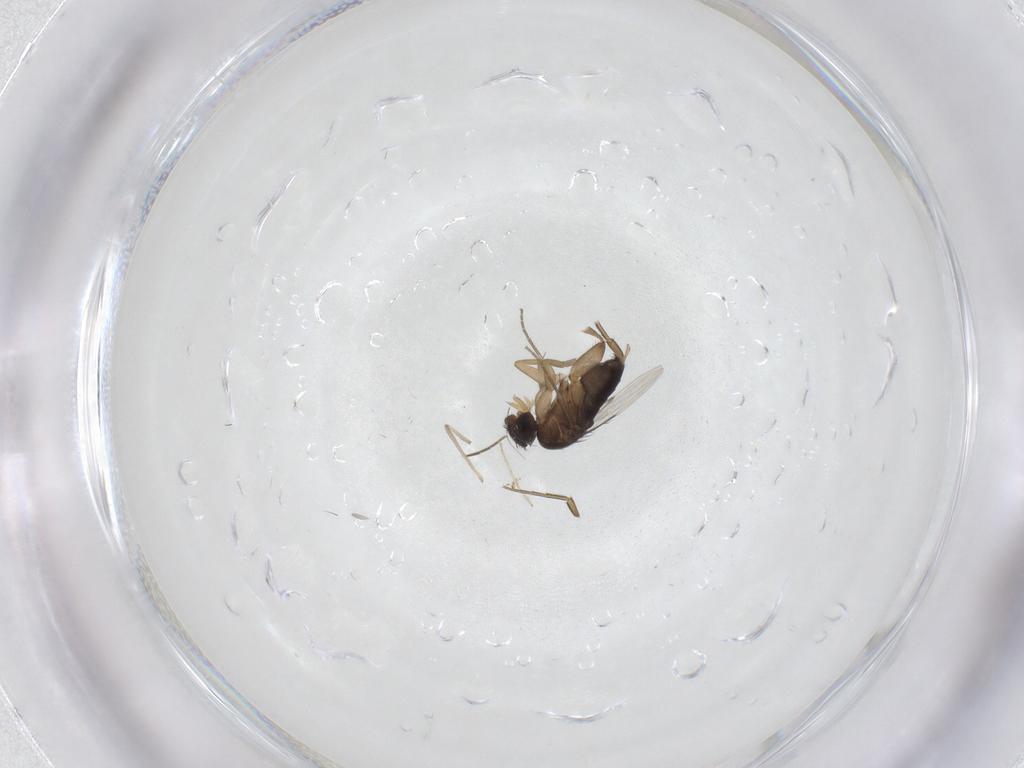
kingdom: Animalia
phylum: Arthropoda
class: Insecta
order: Diptera
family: Chironomidae
